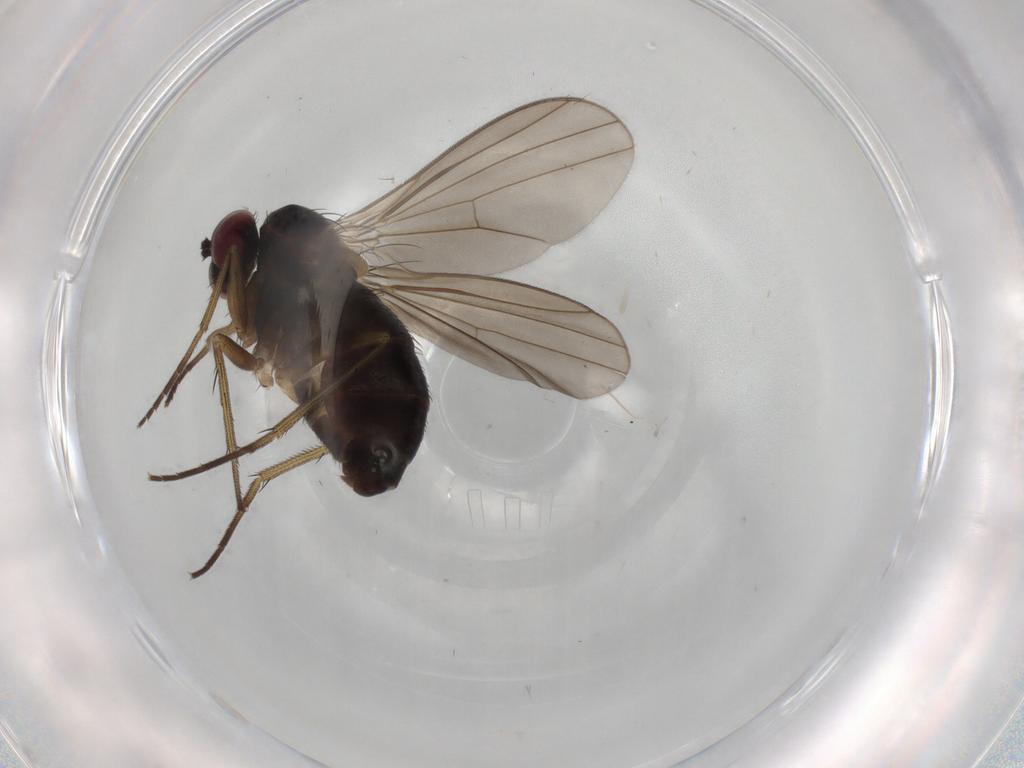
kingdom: Animalia
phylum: Arthropoda
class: Insecta
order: Diptera
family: Dolichopodidae
